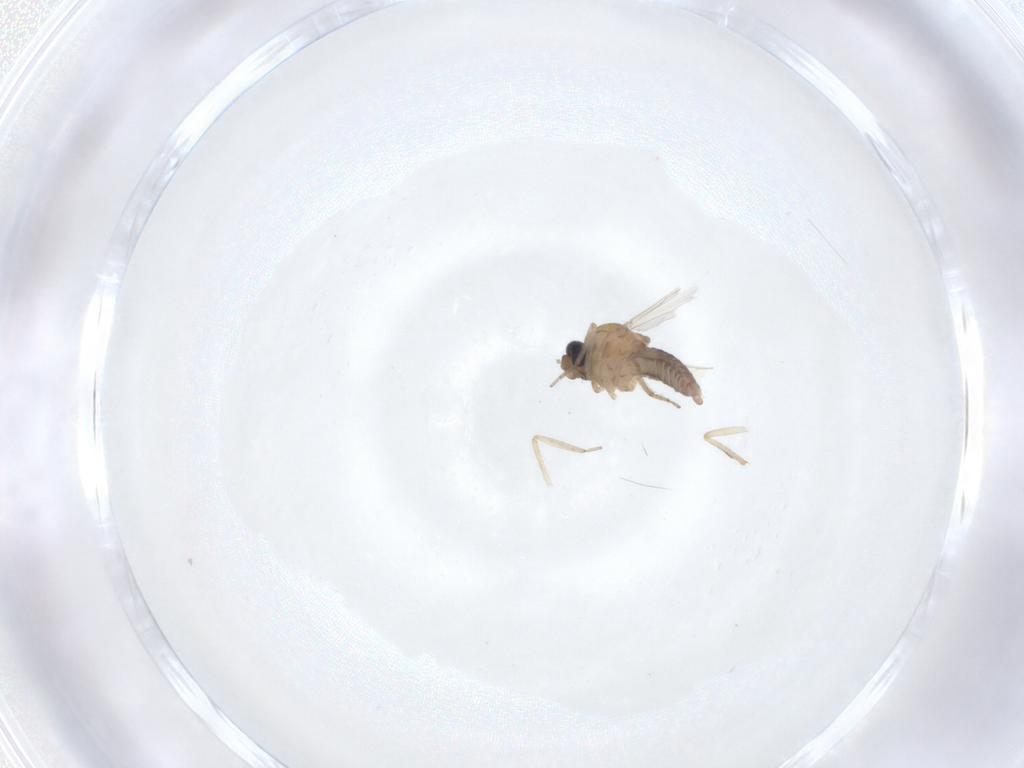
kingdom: Animalia
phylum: Arthropoda
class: Insecta
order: Diptera
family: Ceratopogonidae
